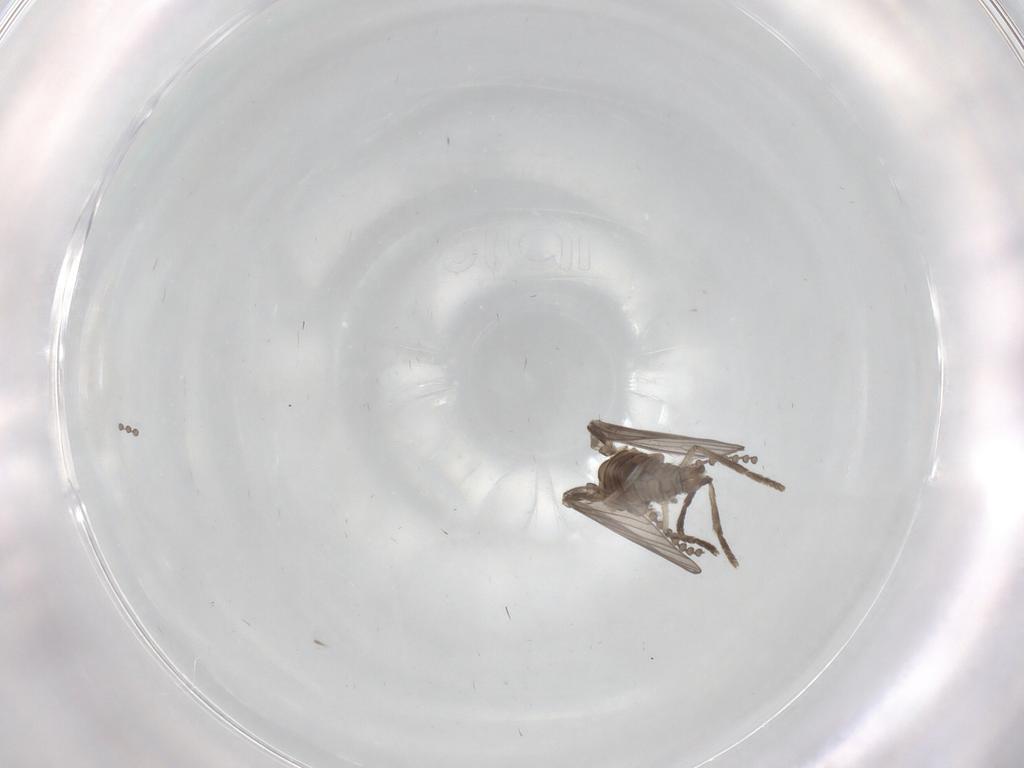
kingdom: Animalia
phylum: Arthropoda
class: Insecta
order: Diptera
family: Psychodidae
